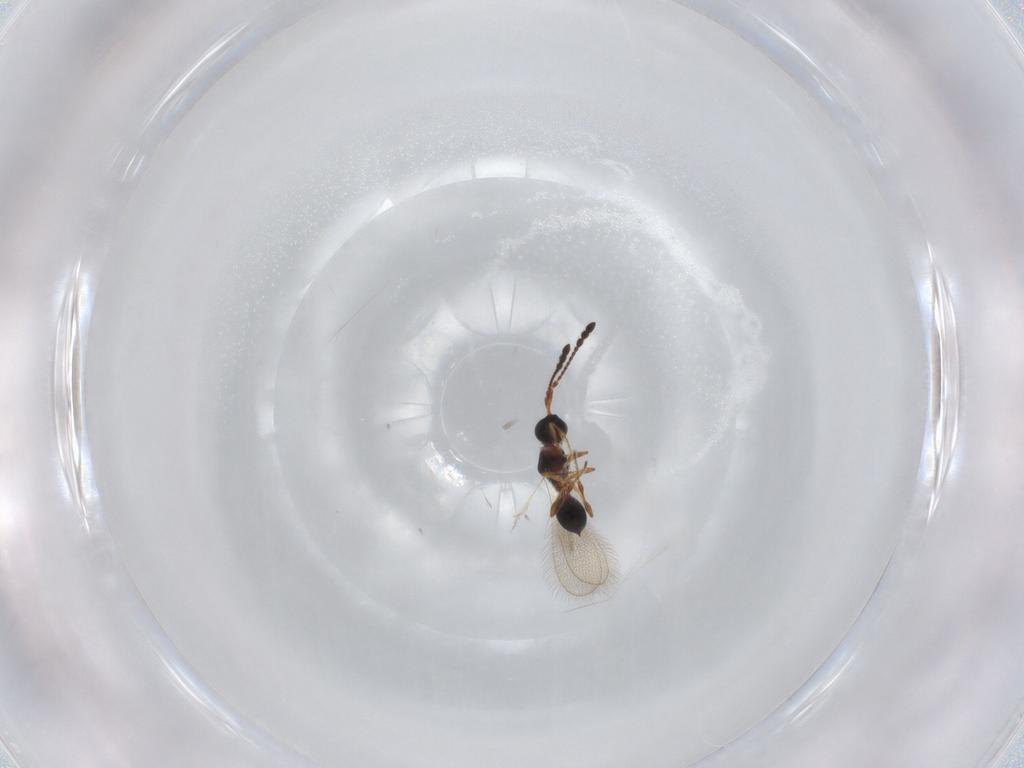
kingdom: Animalia
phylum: Arthropoda
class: Insecta
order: Hymenoptera
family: Diapriidae
